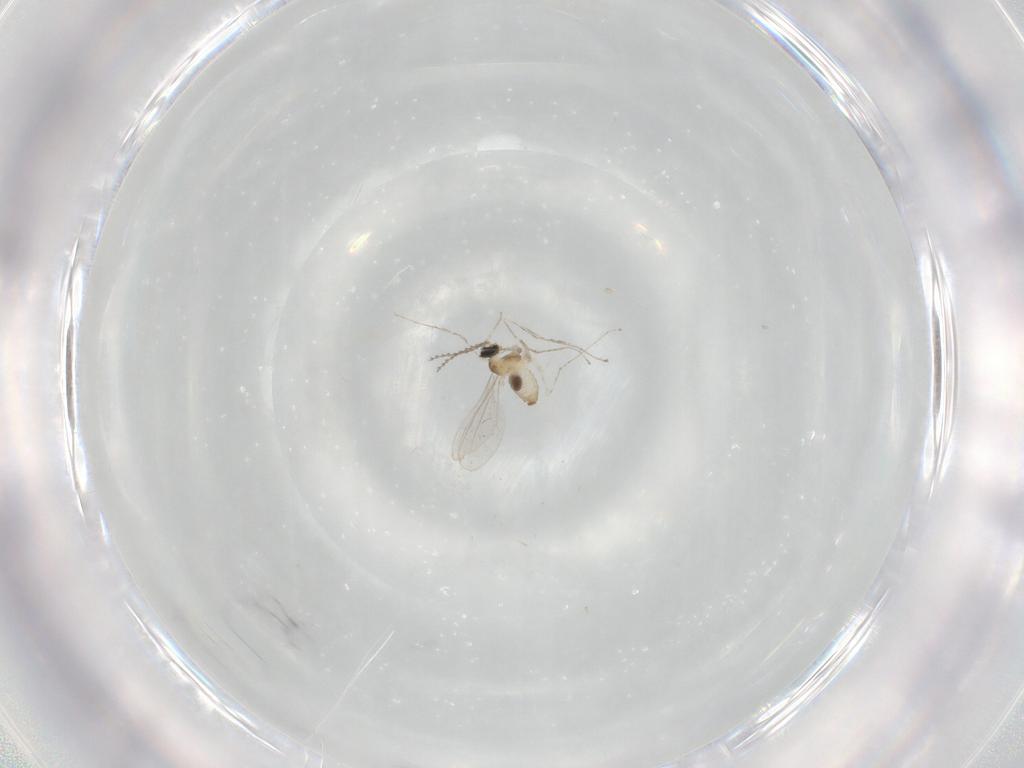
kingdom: Animalia
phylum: Arthropoda
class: Insecta
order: Diptera
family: Cecidomyiidae
